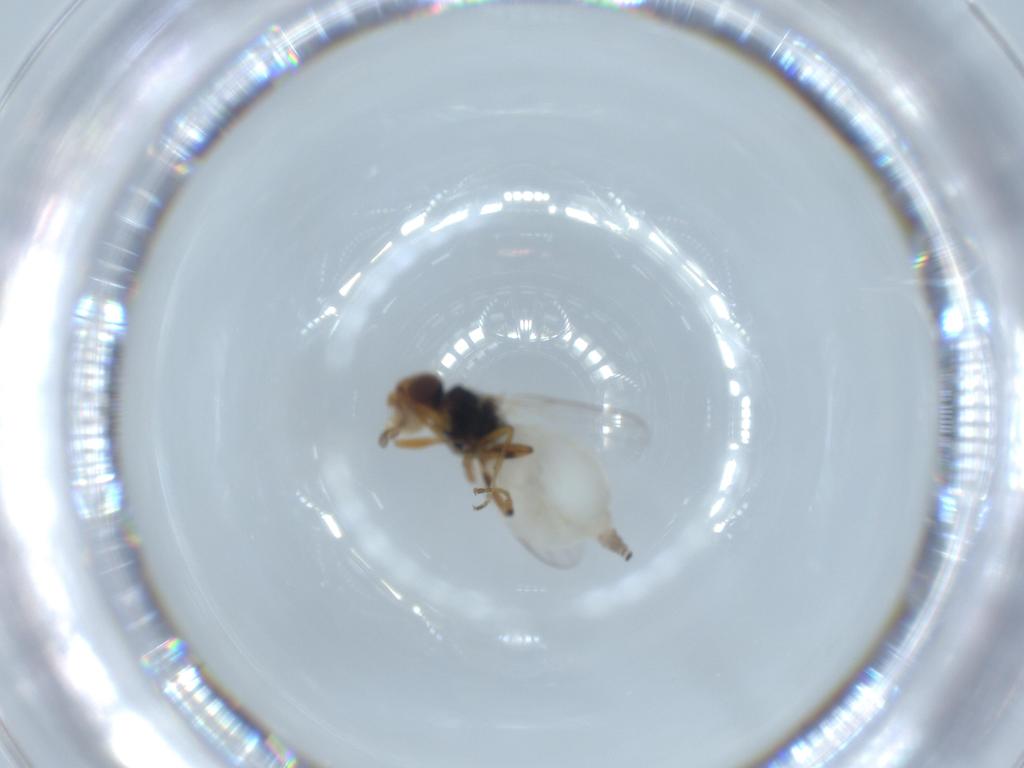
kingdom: Animalia
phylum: Arthropoda
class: Insecta
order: Diptera
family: Chloropidae
